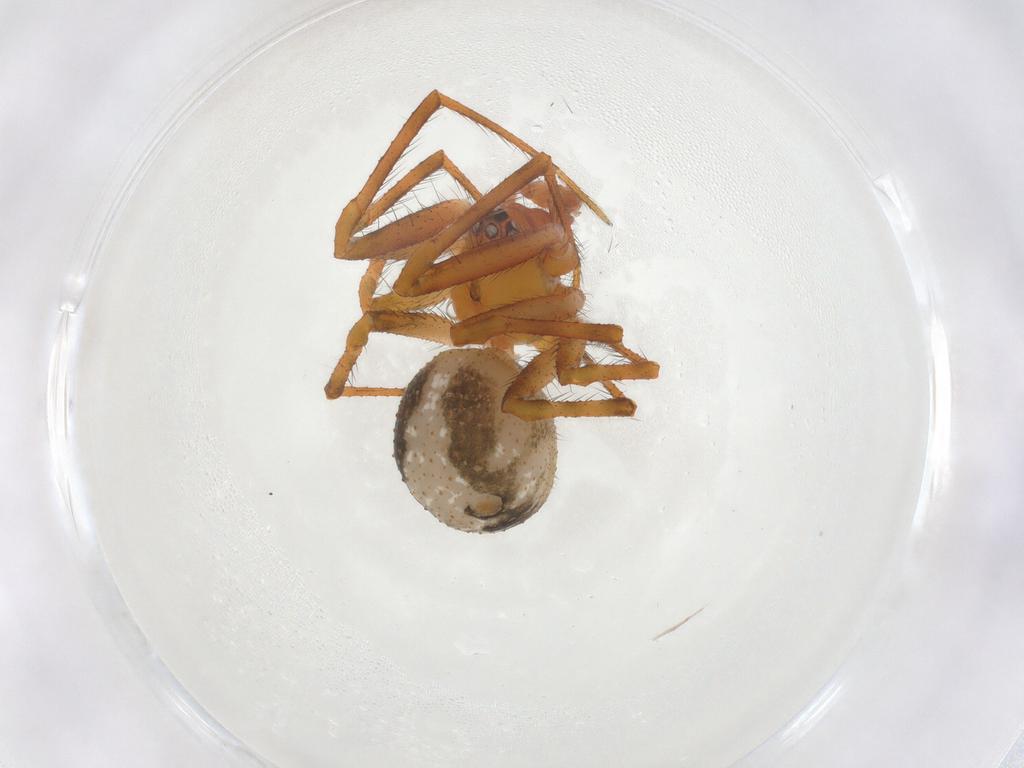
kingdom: Animalia
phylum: Arthropoda
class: Arachnida
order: Araneae
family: Theridiidae
